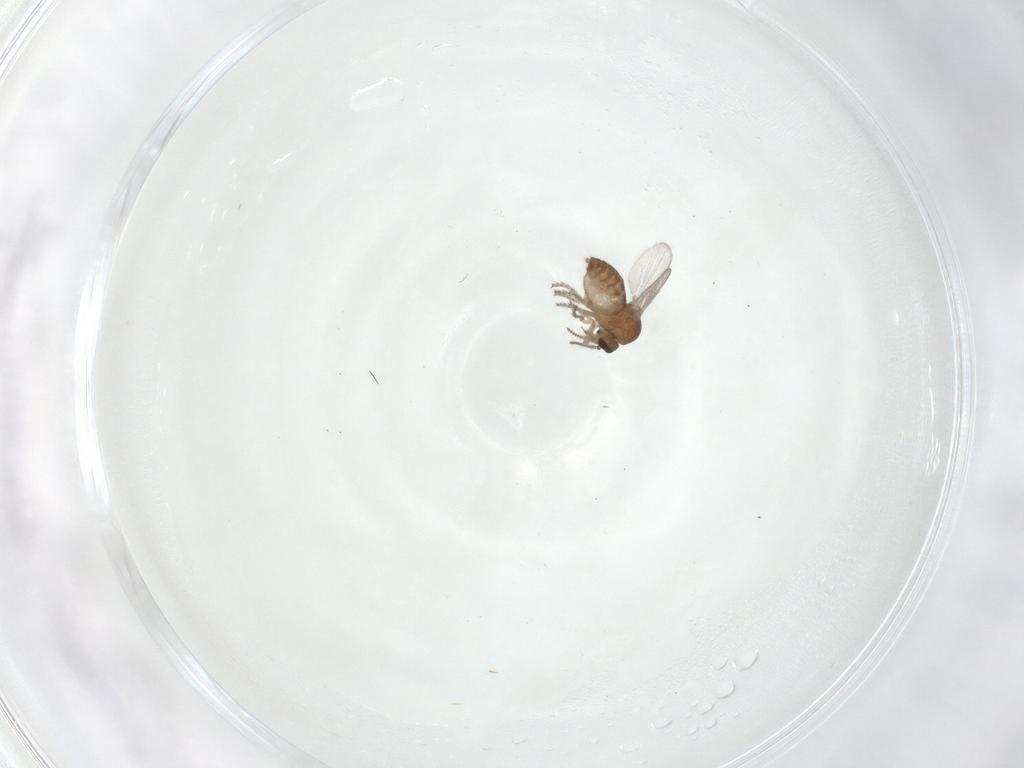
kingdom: Animalia
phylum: Arthropoda
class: Insecta
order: Diptera
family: Ceratopogonidae
